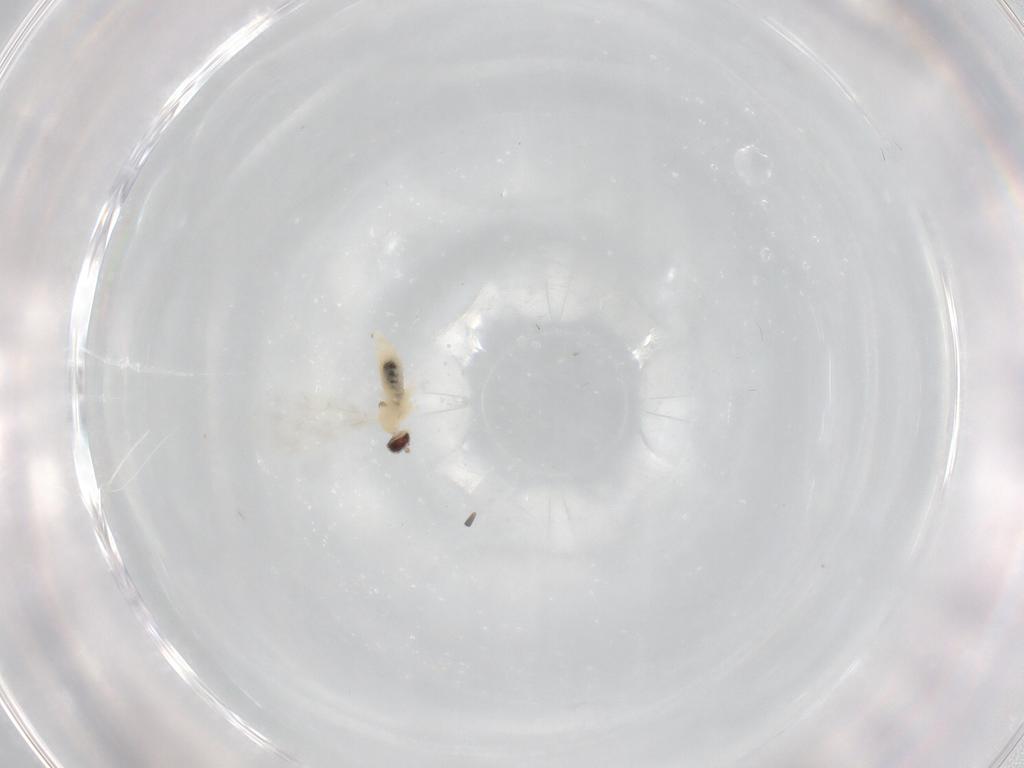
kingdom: Animalia
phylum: Arthropoda
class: Insecta
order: Diptera
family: Cecidomyiidae
